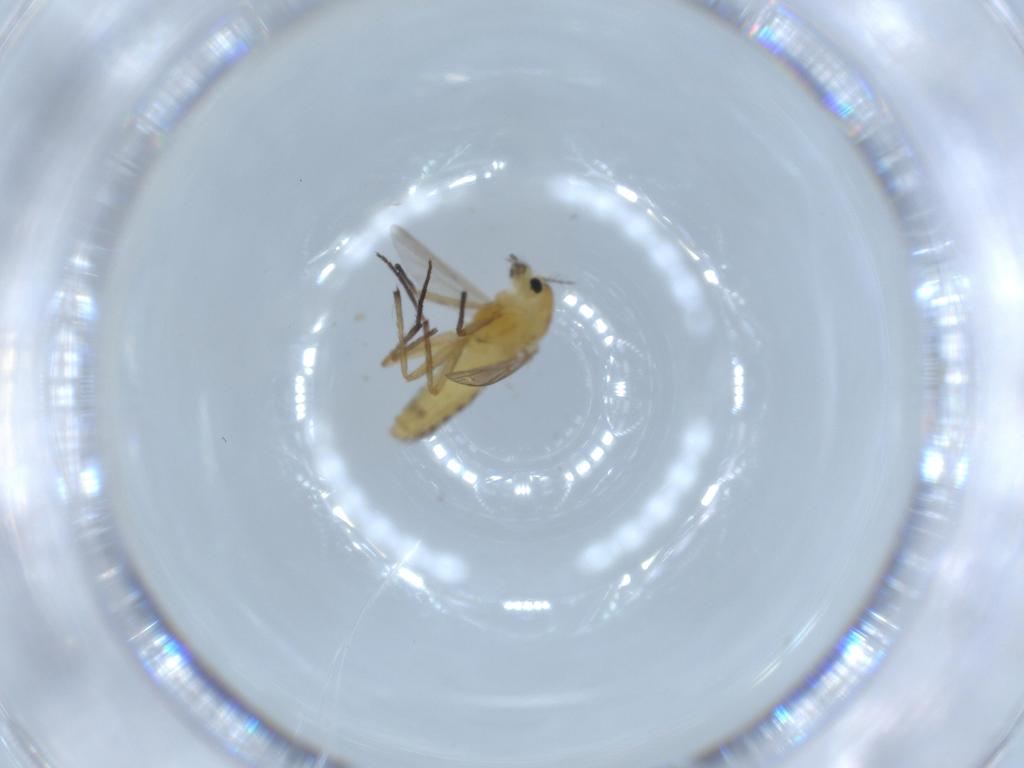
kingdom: Animalia
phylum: Arthropoda
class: Insecta
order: Diptera
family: Chironomidae
